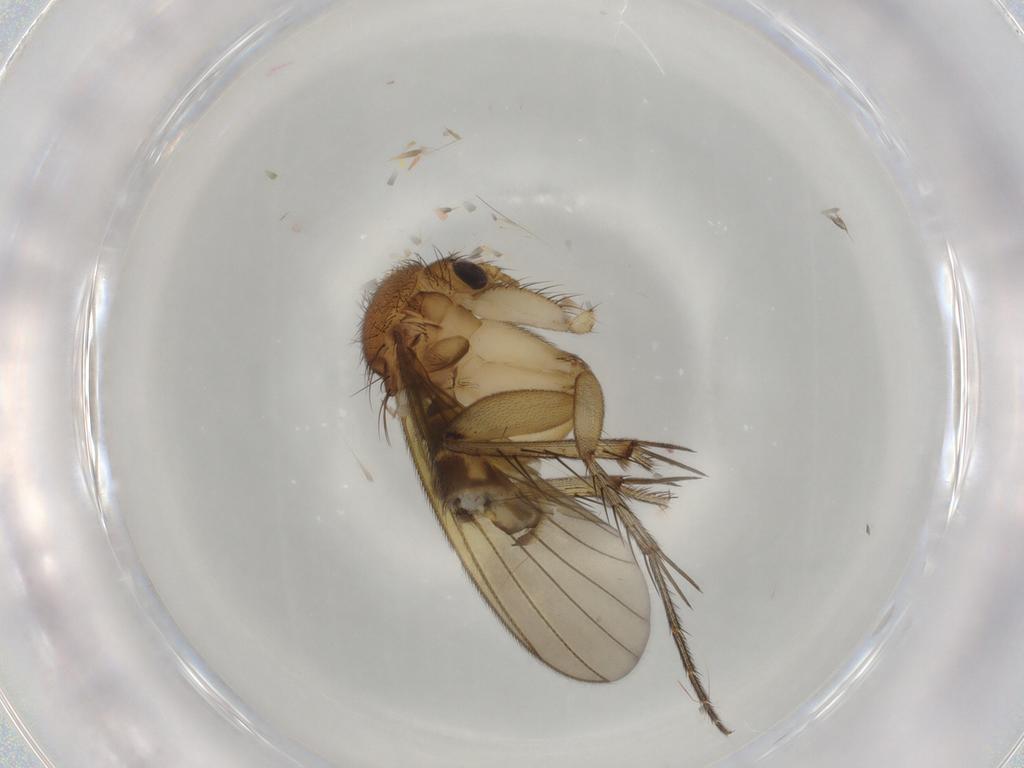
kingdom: Animalia
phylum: Arthropoda
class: Insecta
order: Diptera
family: Mycetophilidae
